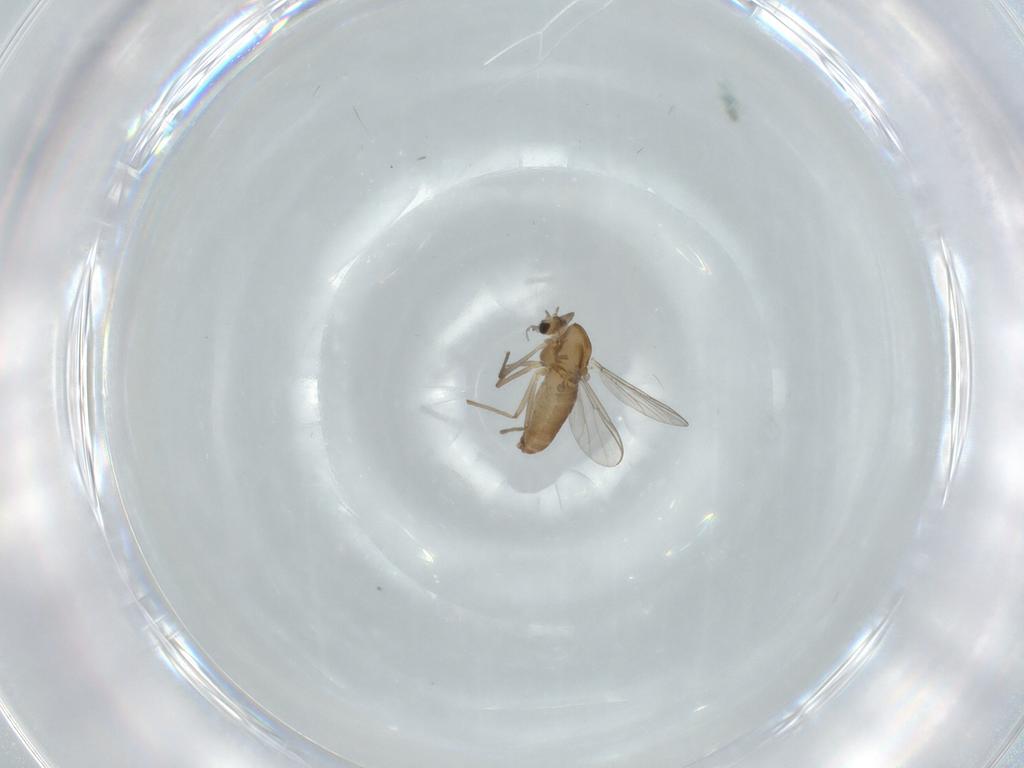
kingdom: Animalia
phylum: Arthropoda
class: Insecta
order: Diptera
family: Chironomidae
